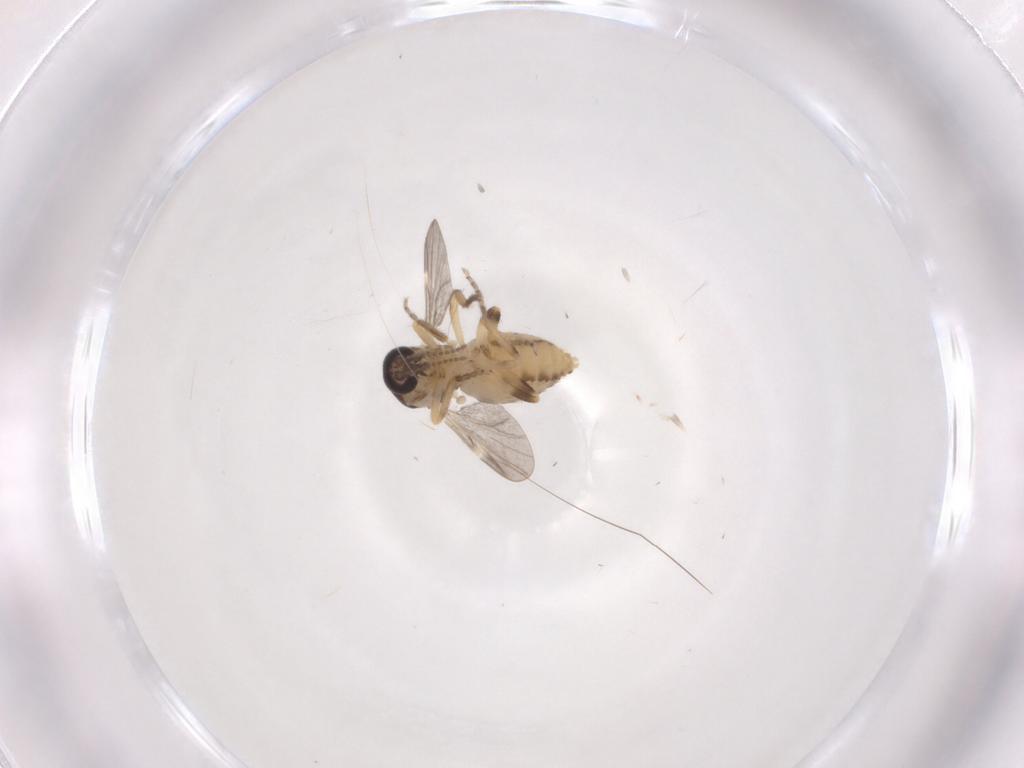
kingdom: Animalia
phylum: Arthropoda
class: Insecta
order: Diptera
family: Ceratopogonidae
